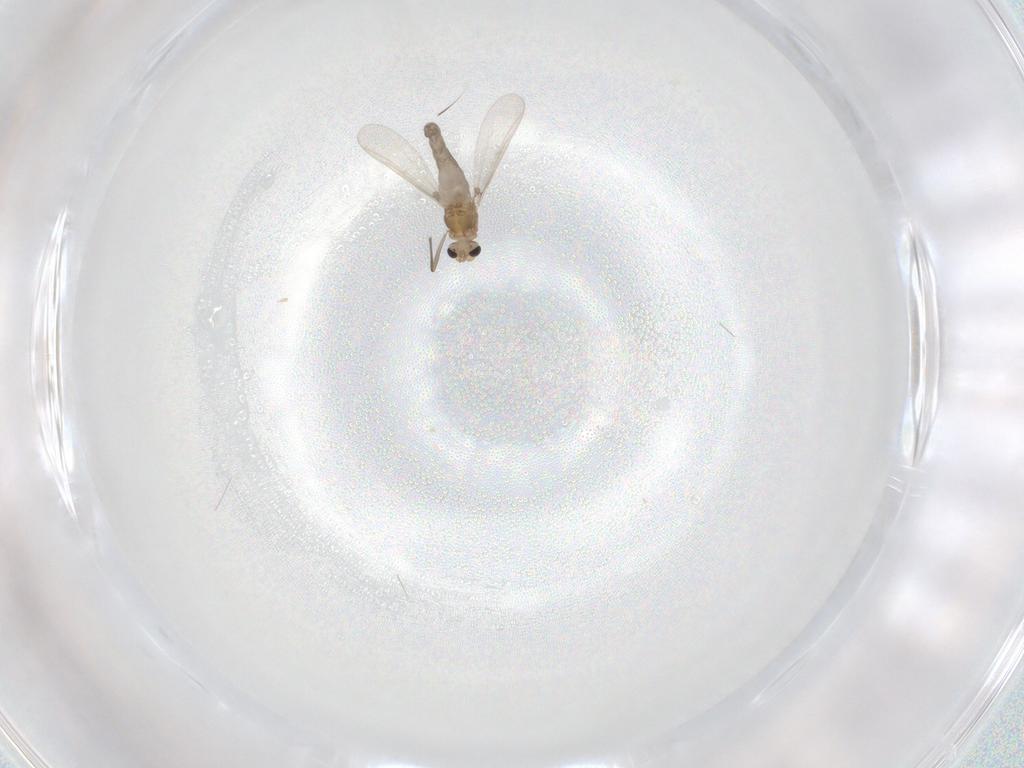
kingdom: Animalia
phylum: Arthropoda
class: Insecta
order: Diptera
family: Chironomidae
